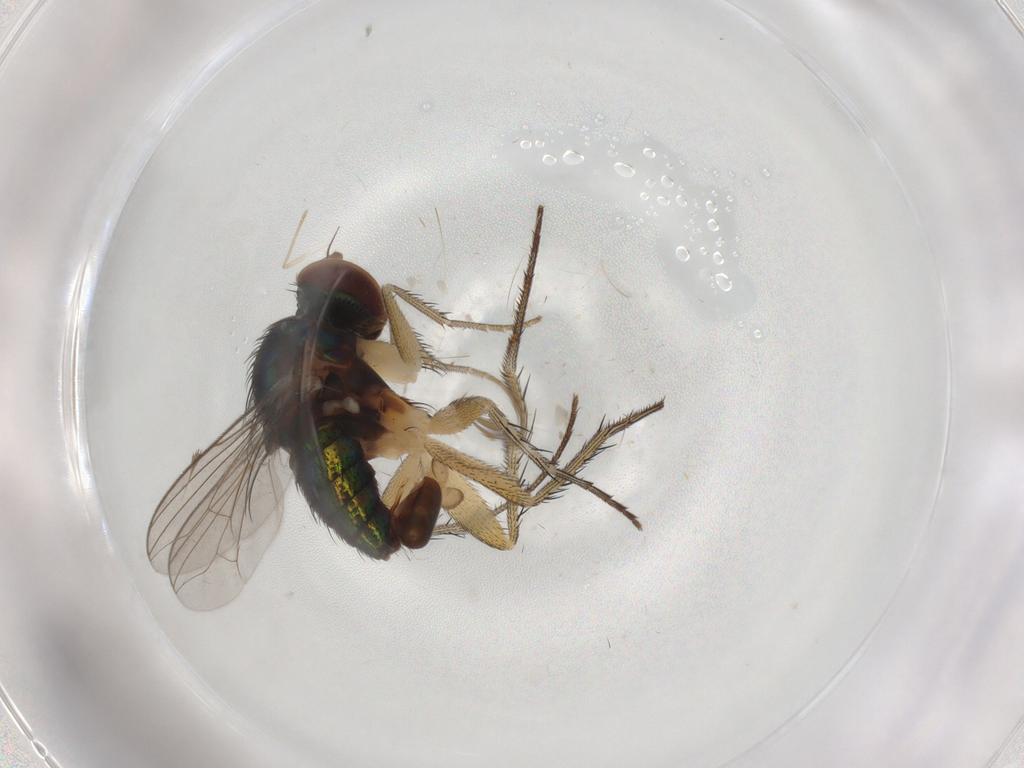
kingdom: Animalia
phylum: Arthropoda
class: Insecta
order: Diptera
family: Dolichopodidae
